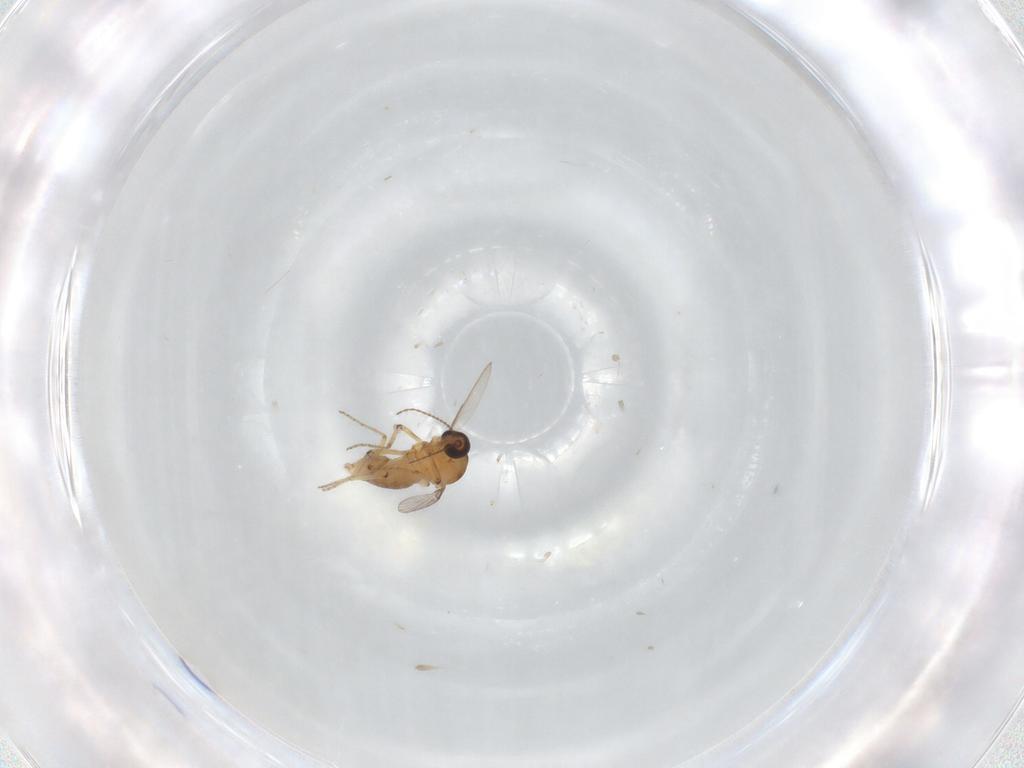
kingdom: Animalia
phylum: Arthropoda
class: Insecta
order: Diptera
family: Ceratopogonidae
